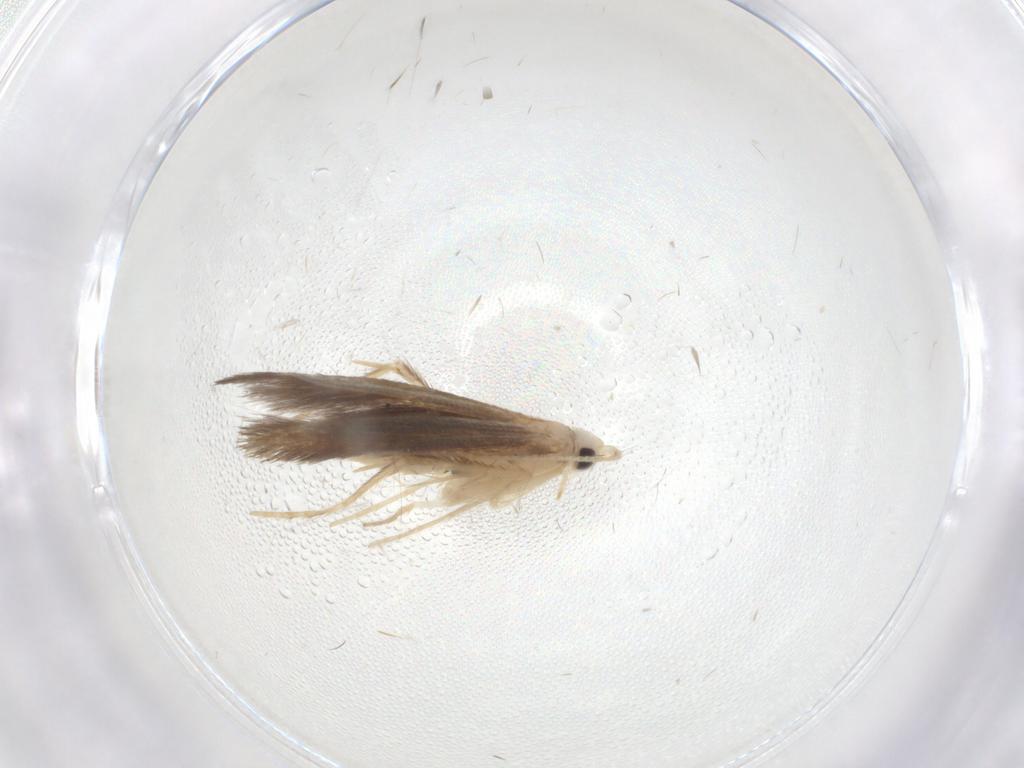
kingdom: Animalia
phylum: Arthropoda
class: Insecta
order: Lepidoptera
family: Lyonetiidae
